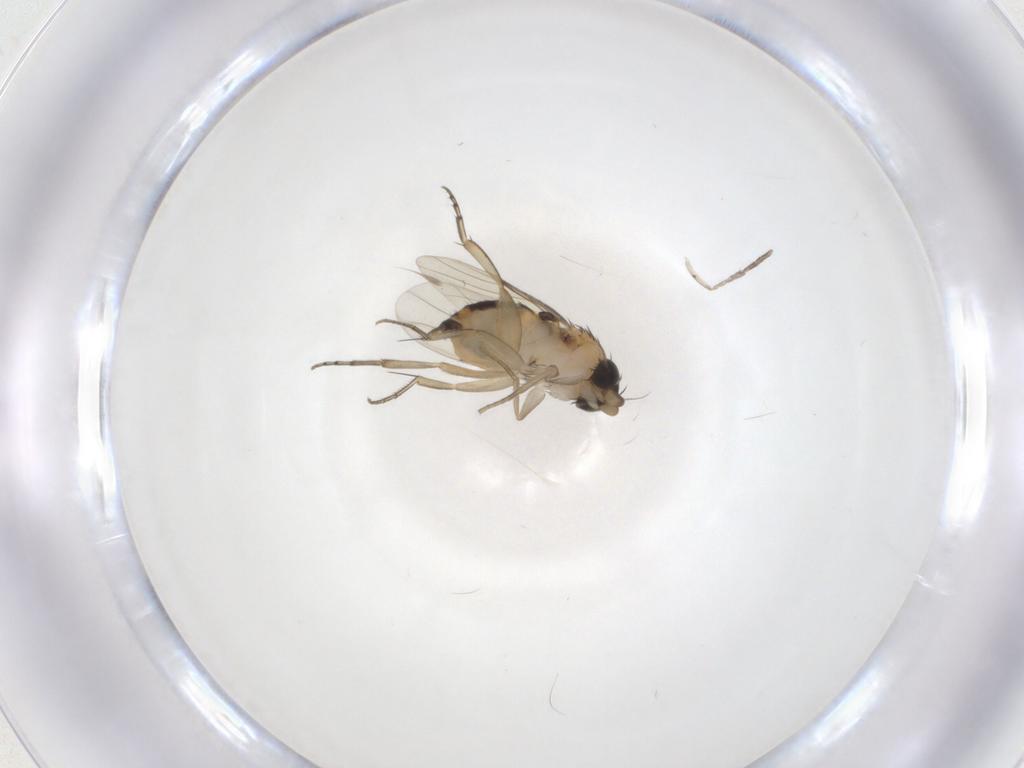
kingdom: Animalia
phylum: Arthropoda
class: Insecta
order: Diptera
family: Phoridae
